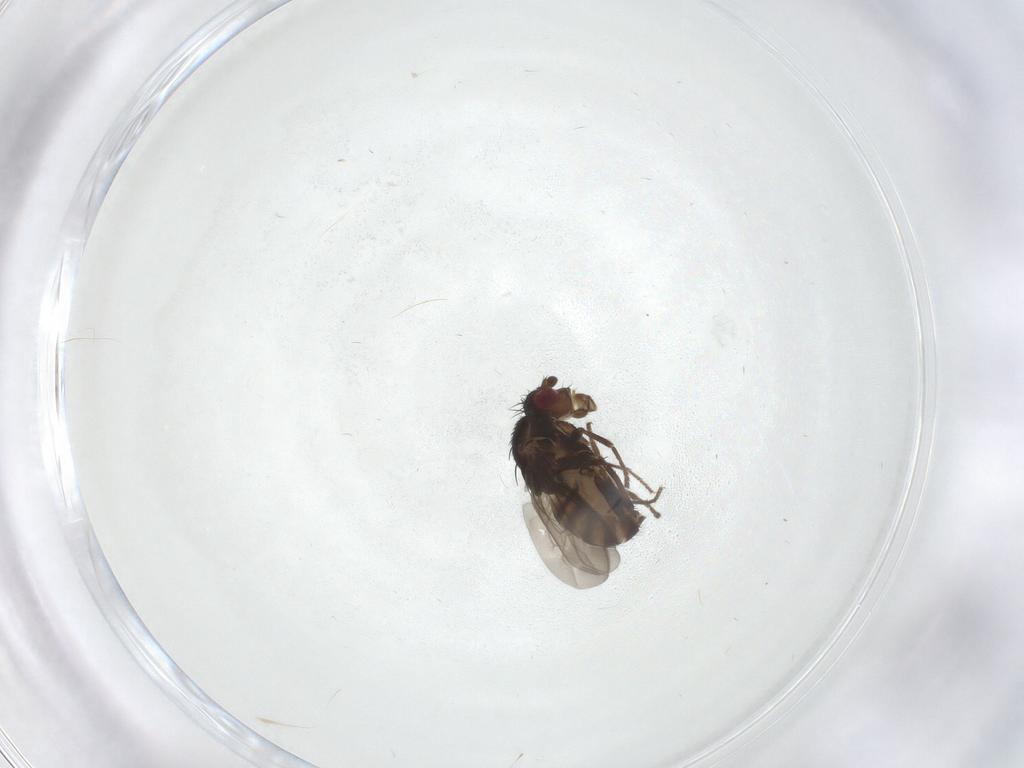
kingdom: Animalia
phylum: Arthropoda
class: Insecta
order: Diptera
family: Sphaeroceridae
